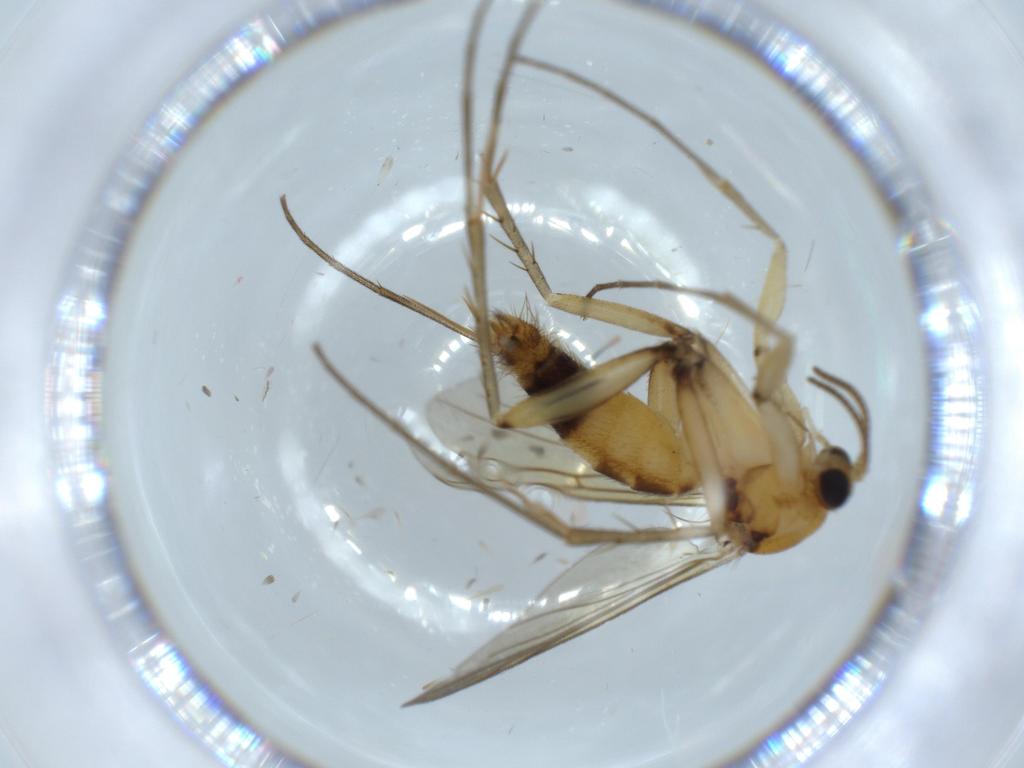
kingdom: Animalia
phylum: Arthropoda
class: Insecta
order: Diptera
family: Mycetophilidae
